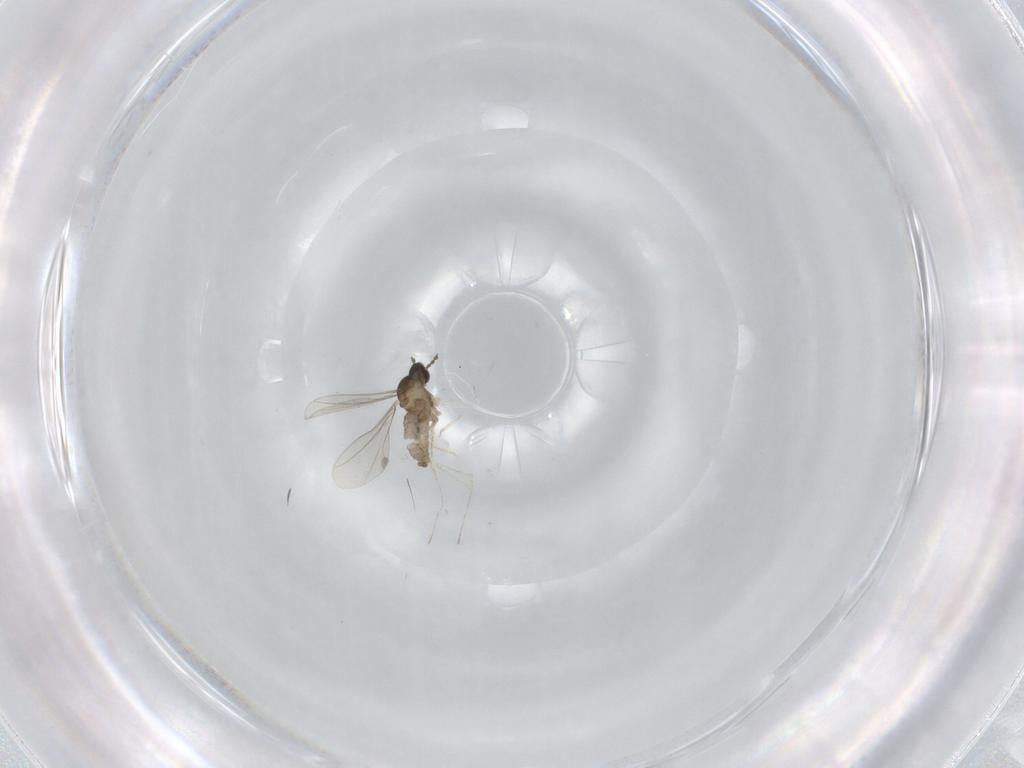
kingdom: Animalia
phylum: Arthropoda
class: Insecta
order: Diptera
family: Cecidomyiidae
